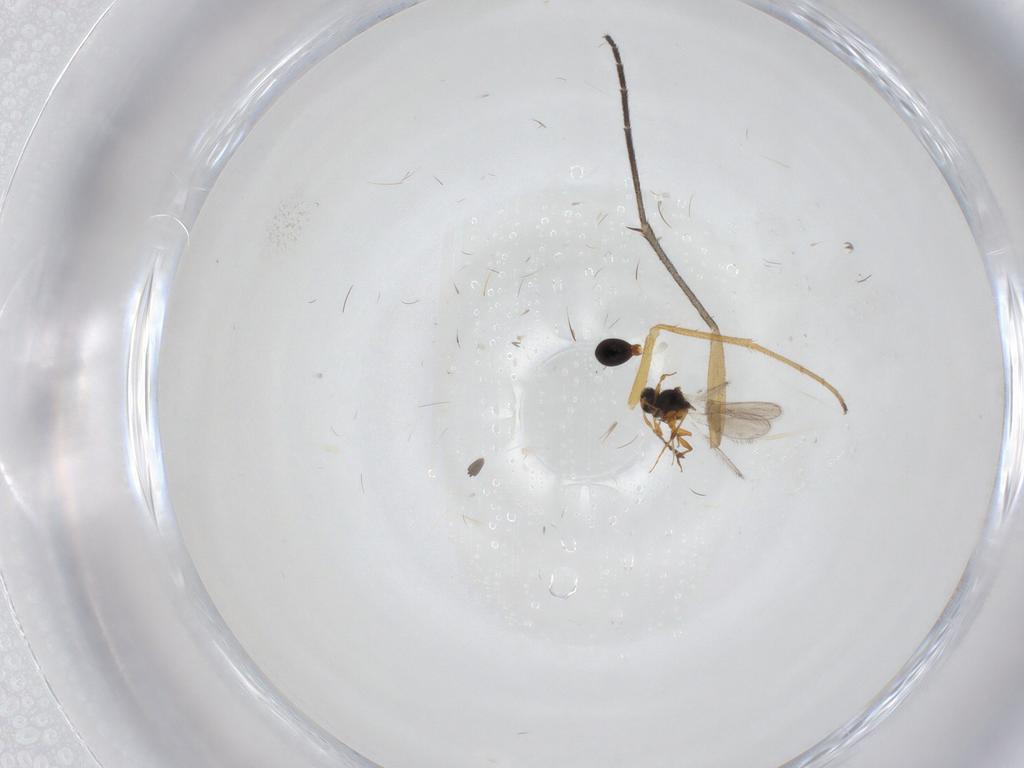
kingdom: Animalia
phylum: Arthropoda
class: Insecta
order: Diptera
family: Sciaridae
